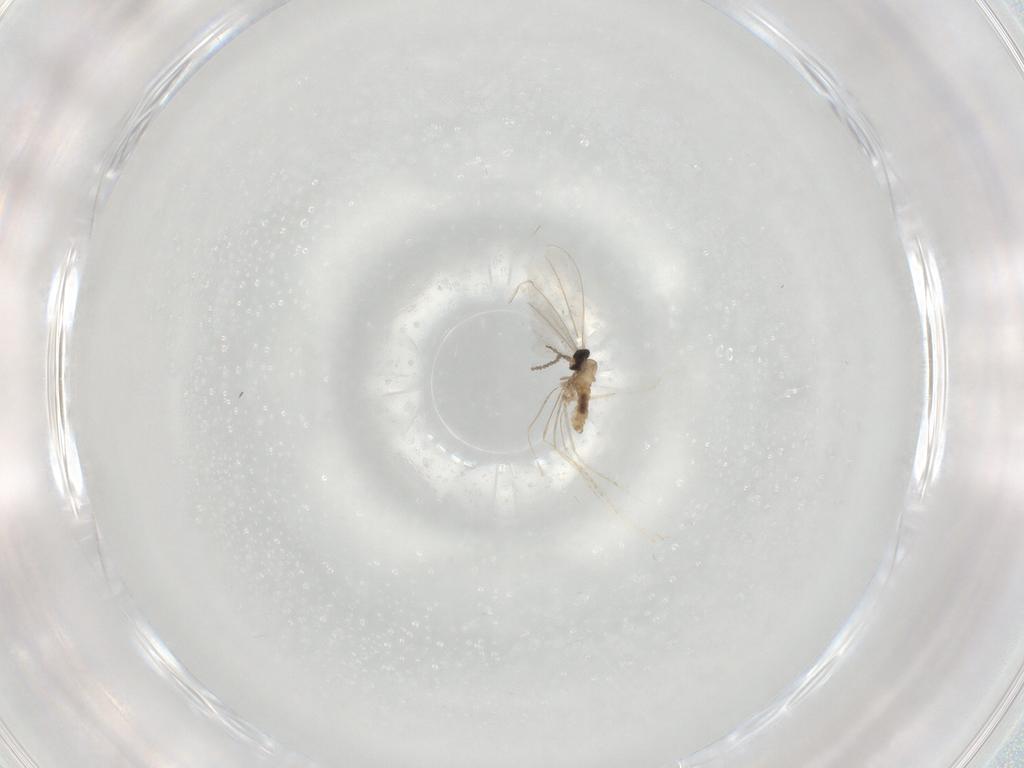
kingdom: Animalia
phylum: Arthropoda
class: Insecta
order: Diptera
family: Cecidomyiidae
